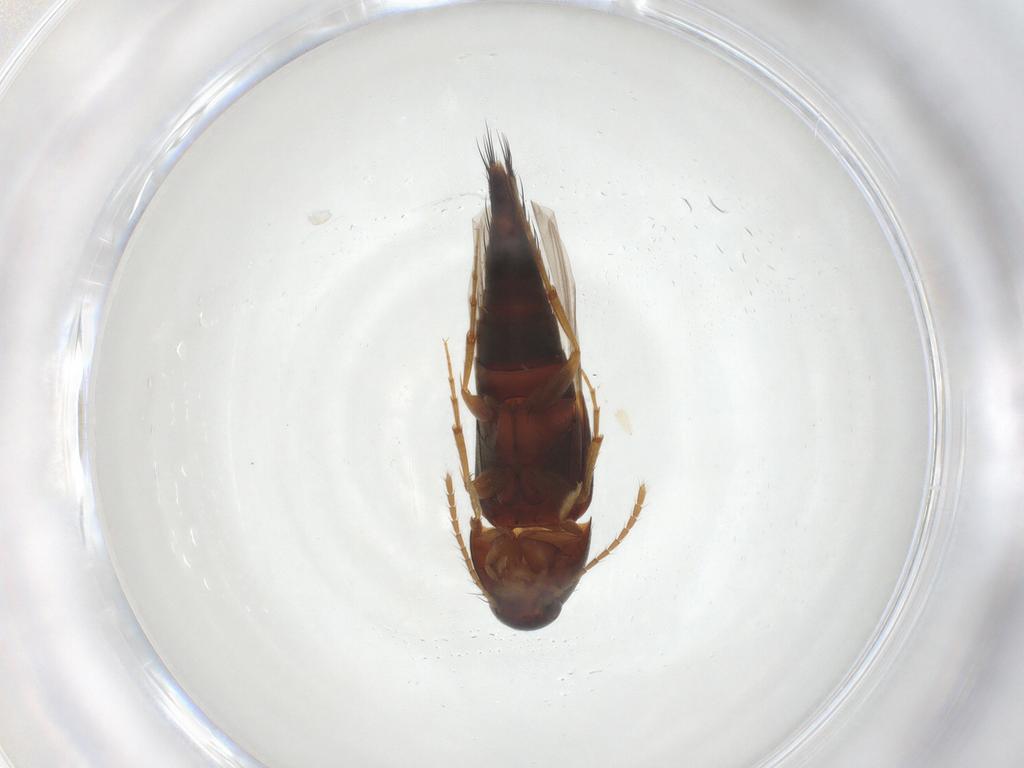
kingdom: Animalia
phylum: Arthropoda
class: Insecta
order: Coleoptera
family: Staphylinidae
